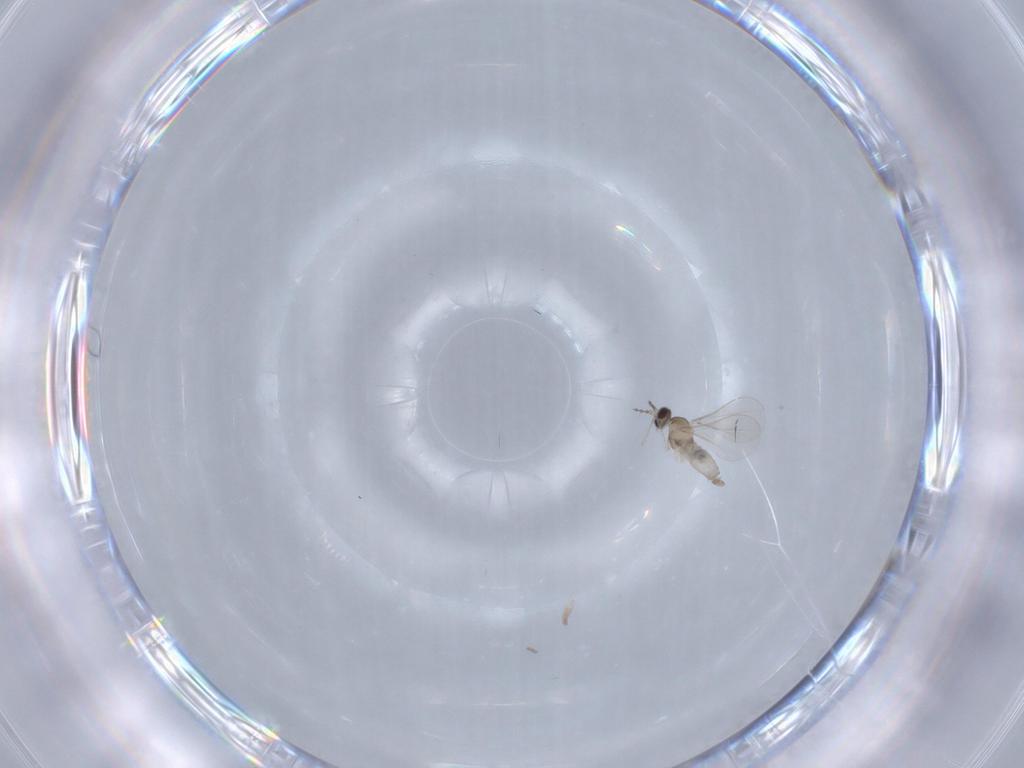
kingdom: Animalia
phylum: Arthropoda
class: Insecta
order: Diptera
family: Cecidomyiidae
